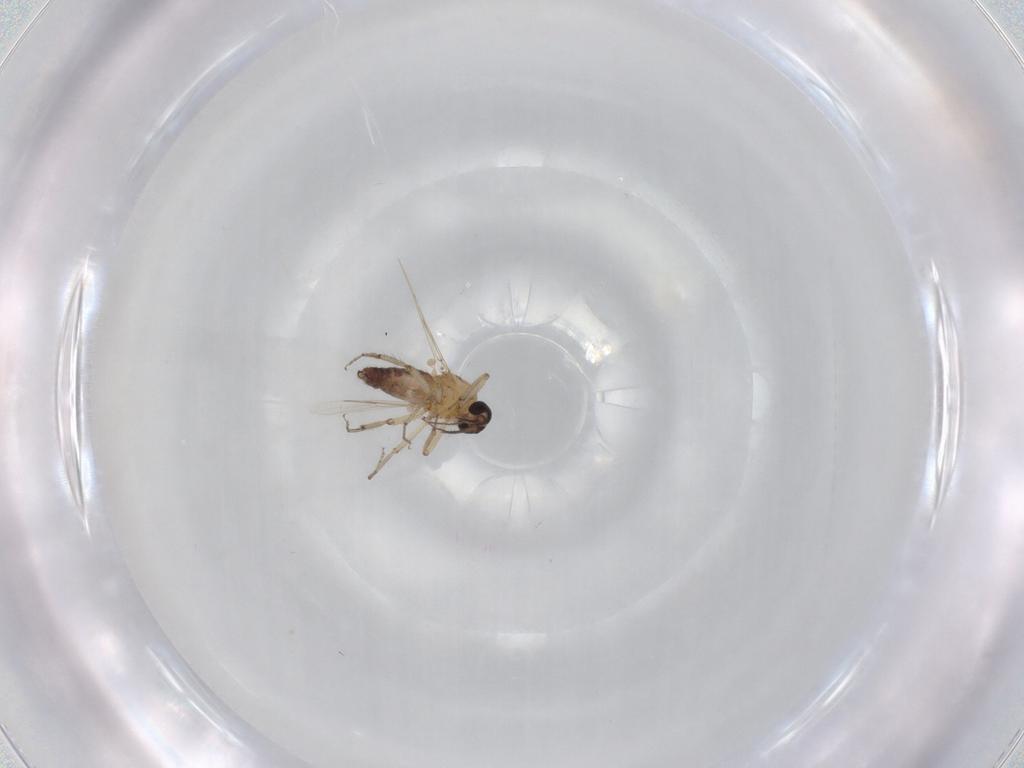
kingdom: Animalia
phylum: Arthropoda
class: Insecta
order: Diptera
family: Ceratopogonidae
